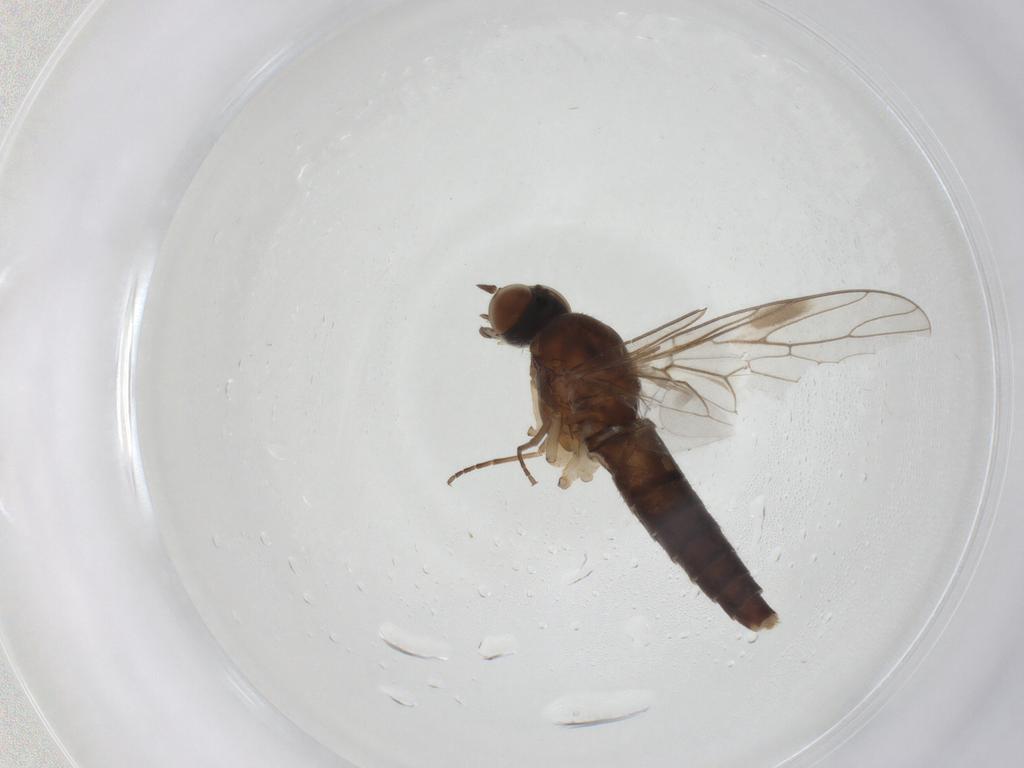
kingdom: Animalia
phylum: Arthropoda
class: Insecta
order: Diptera
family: Scenopinidae
